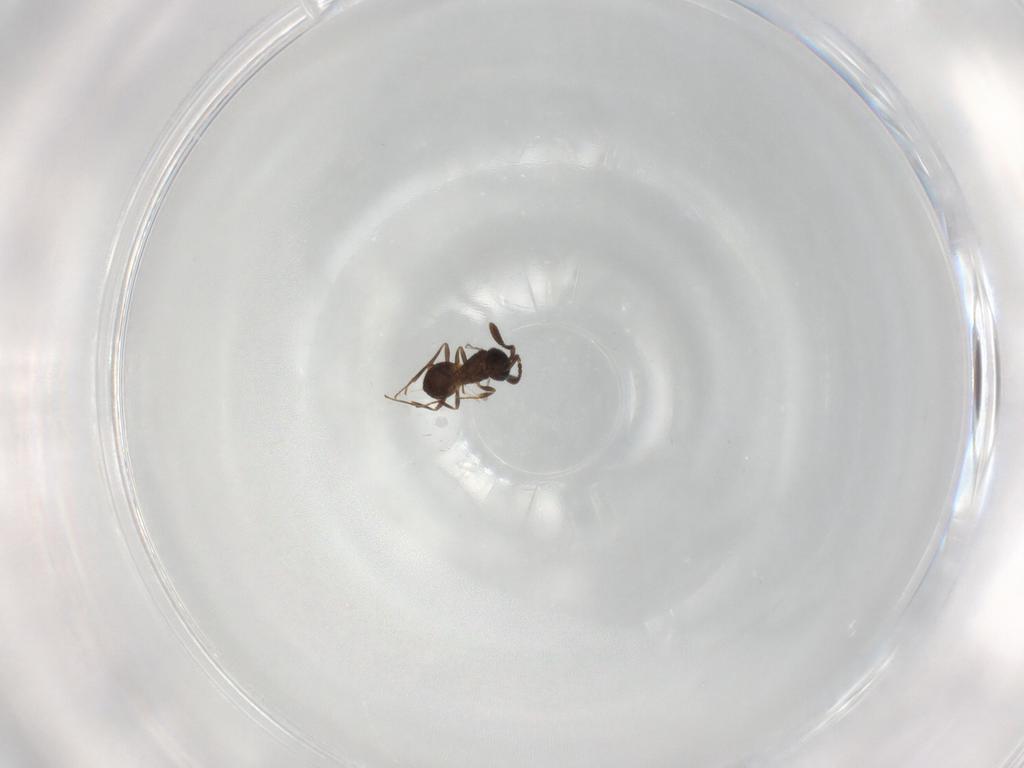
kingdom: Animalia
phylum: Arthropoda
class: Insecta
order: Hymenoptera
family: Scelionidae
